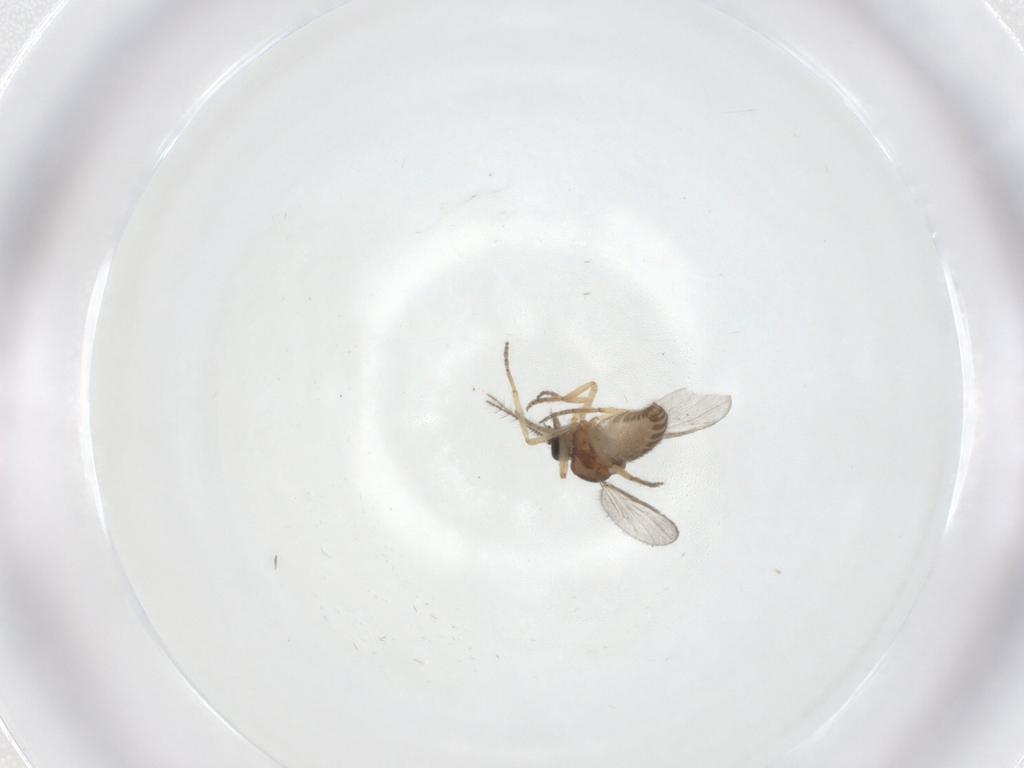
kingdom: Animalia
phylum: Arthropoda
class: Insecta
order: Diptera
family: Ceratopogonidae
